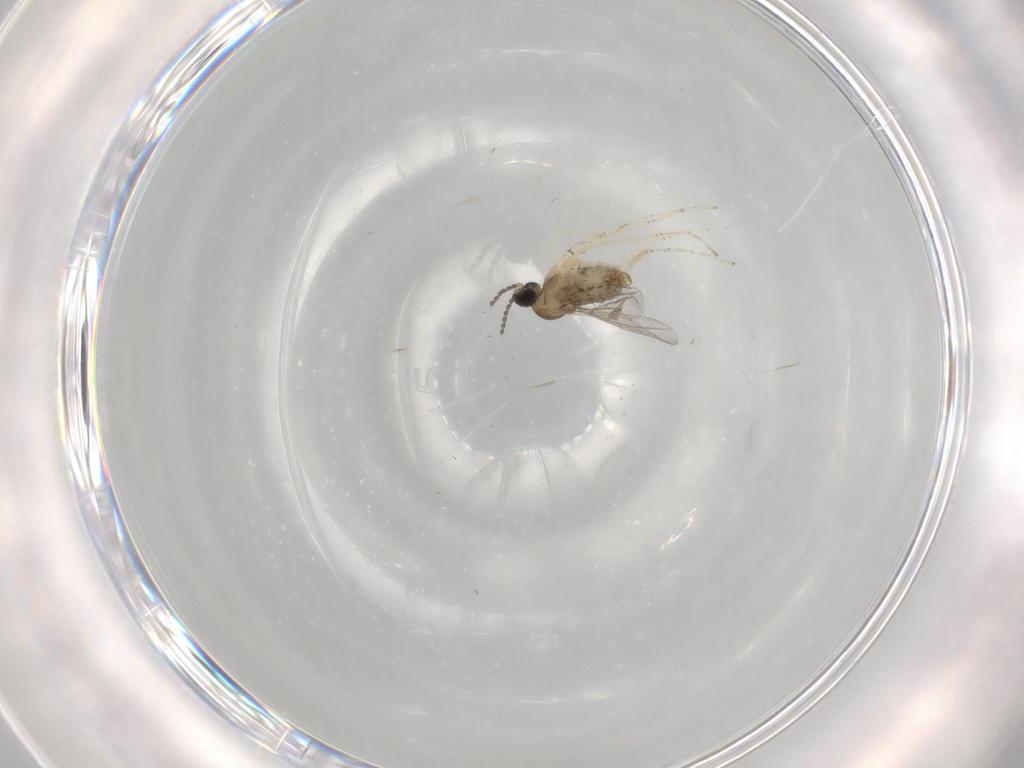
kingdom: Animalia
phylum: Arthropoda
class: Insecta
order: Diptera
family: Cecidomyiidae
